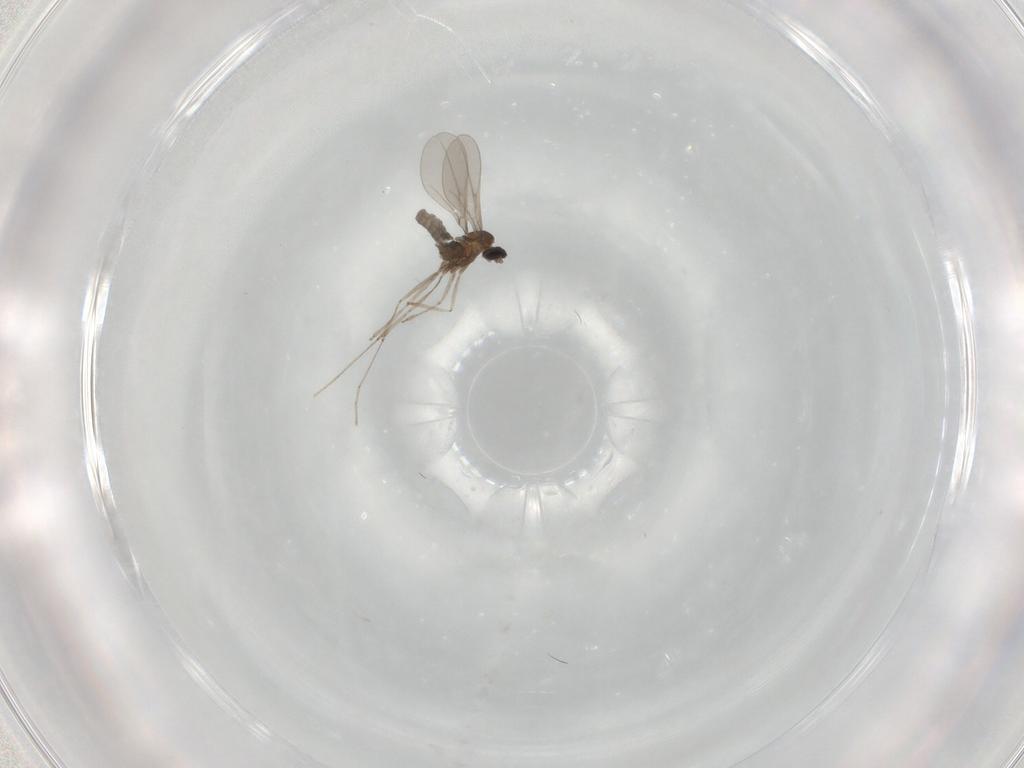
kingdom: Animalia
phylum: Arthropoda
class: Insecta
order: Diptera
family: Cecidomyiidae
